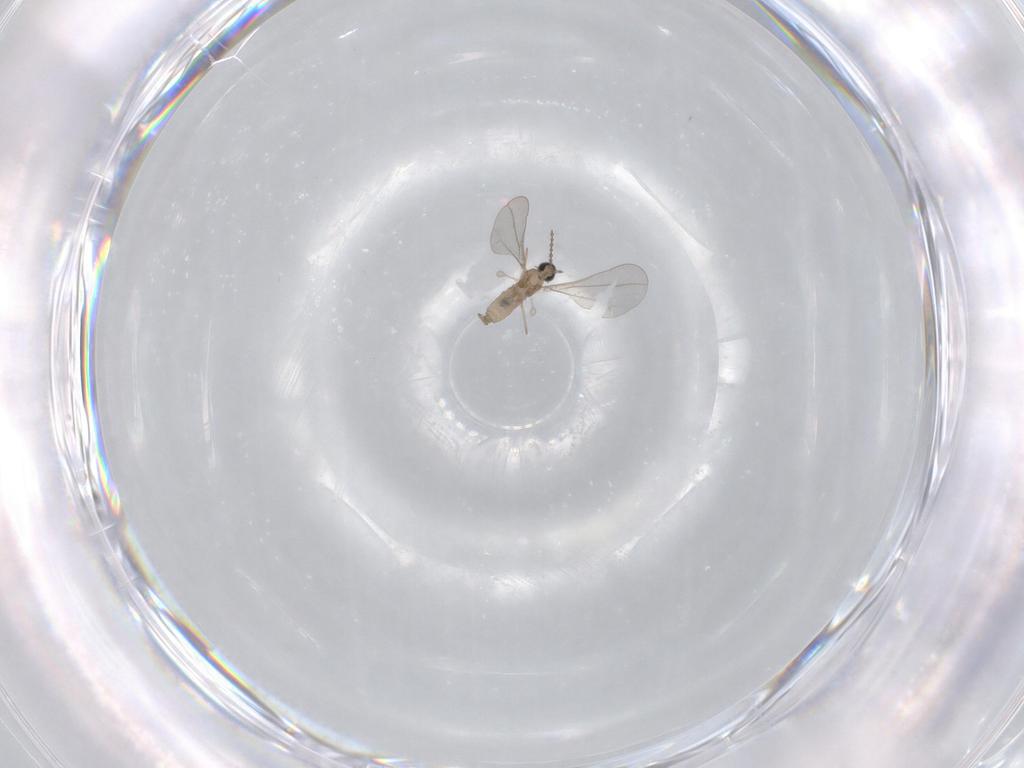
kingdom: Animalia
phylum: Arthropoda
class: Insecta
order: Diptera
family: Cecidomyiidae
